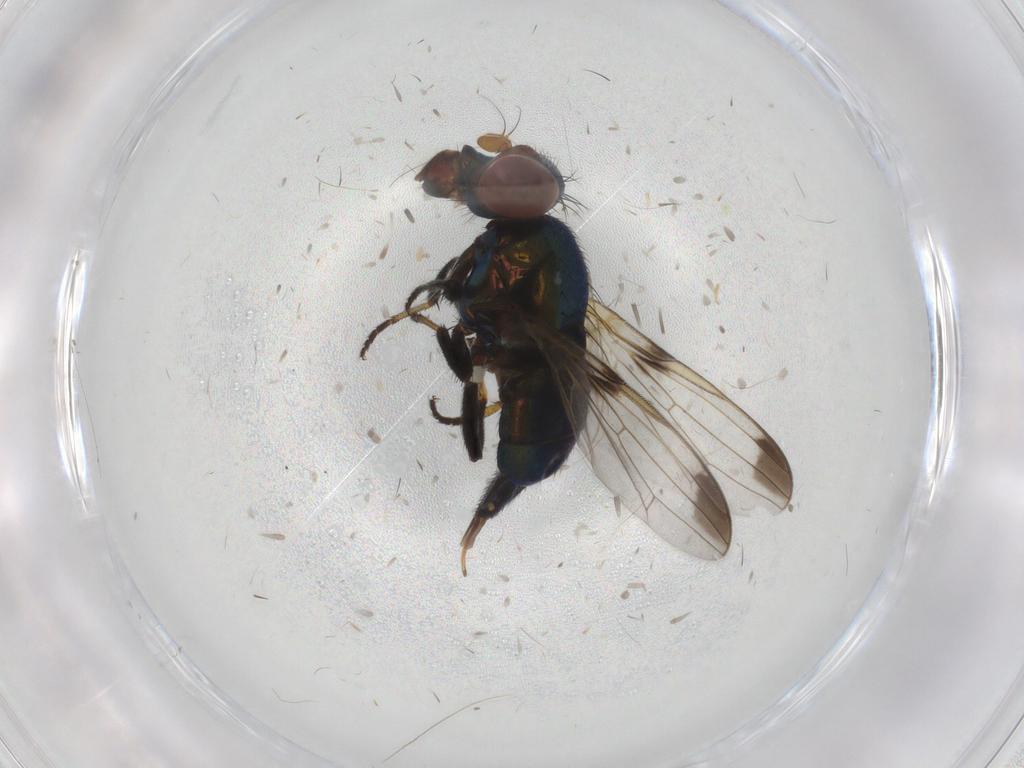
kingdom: Animalia
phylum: Arthropoda
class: Insecta
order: Diptera
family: Ulidiidae
